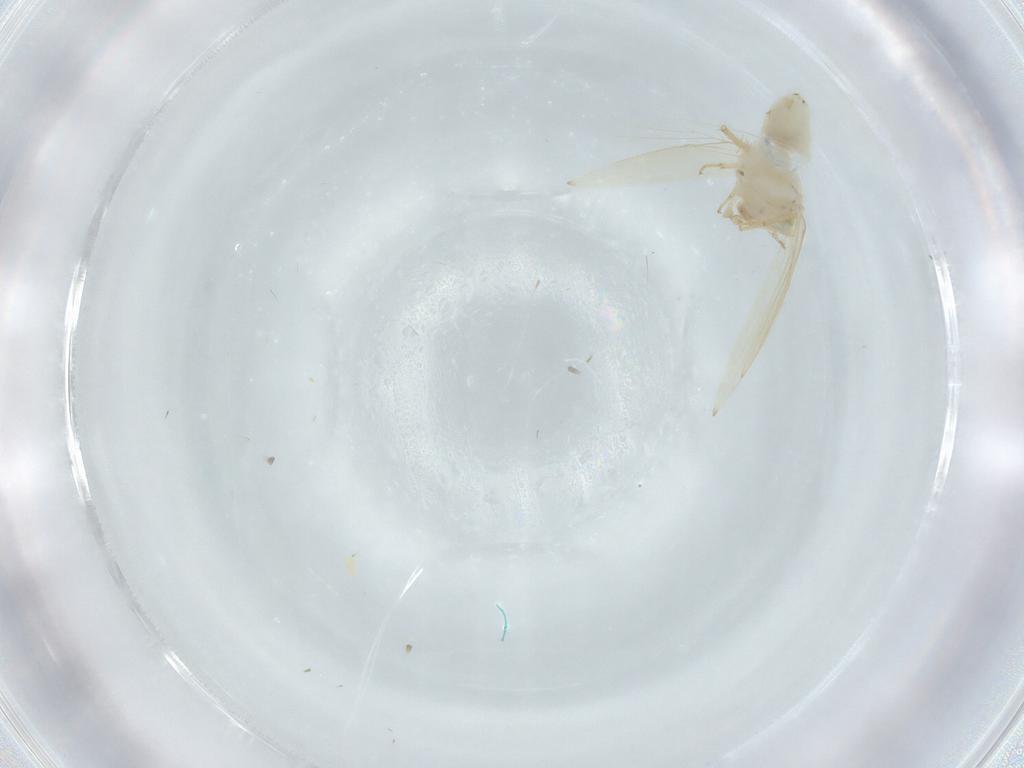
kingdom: Animalia
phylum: Arthropoda
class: Insecta
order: Psocodea
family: Lepidopsocidae
